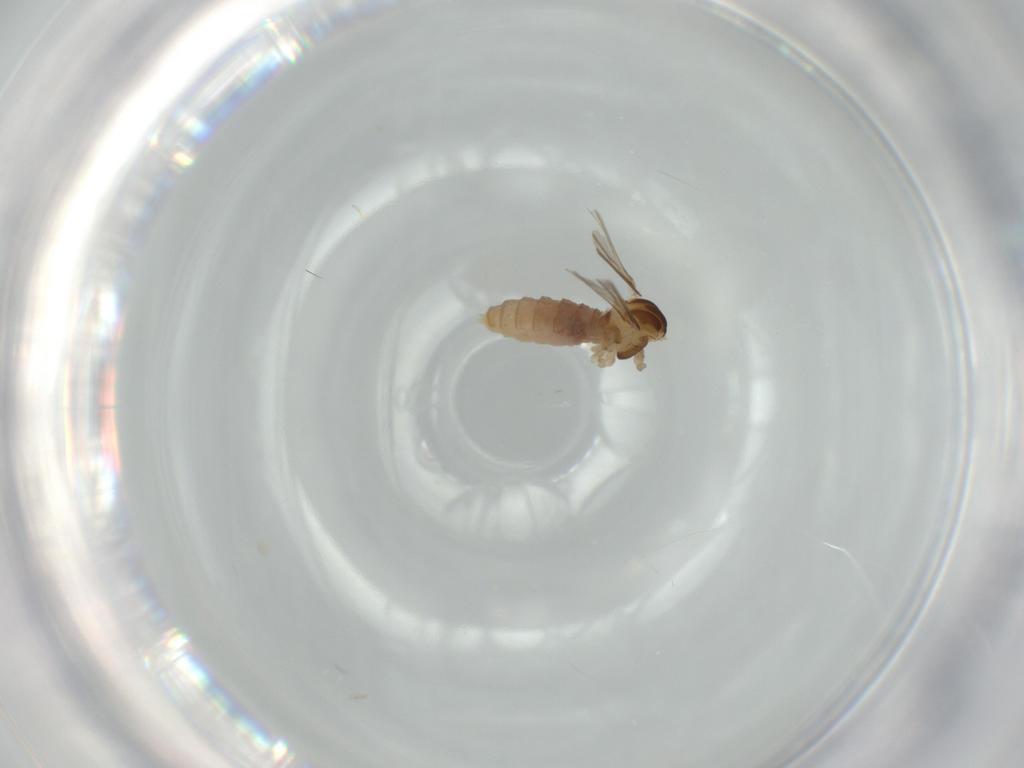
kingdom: Animalia
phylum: Arthropoda
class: Insecta
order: Diptera
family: Cecidomyiidae
